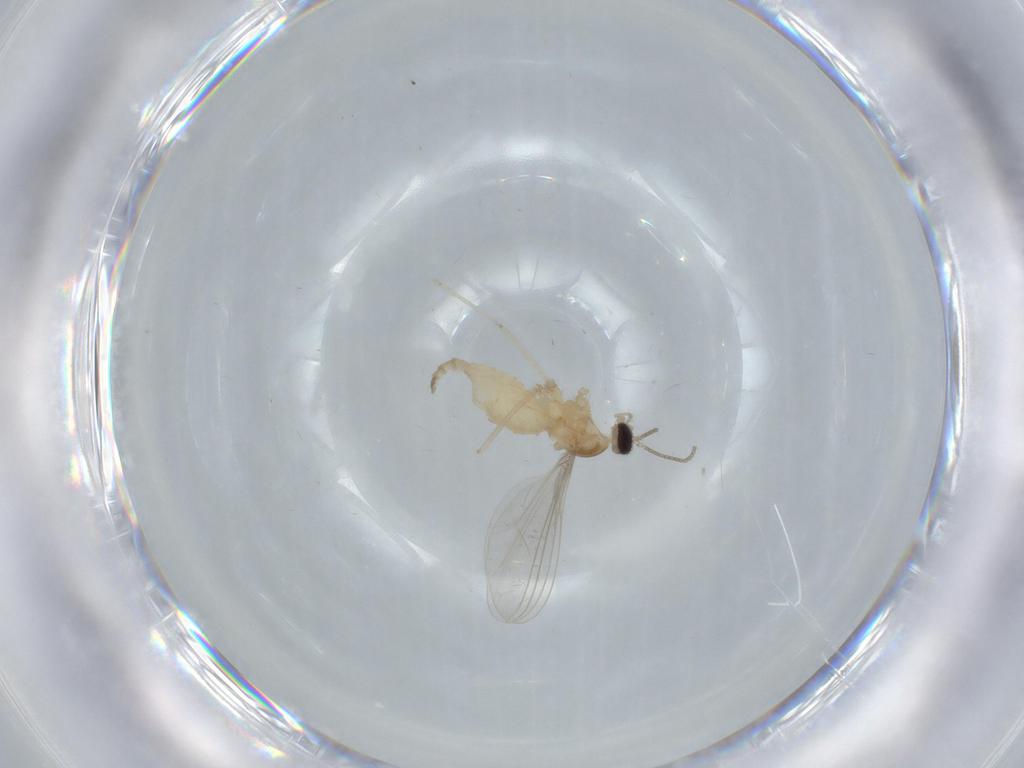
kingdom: Animalia
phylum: Arthropoda
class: Insecta
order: Diptera
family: Cecidomyiidae
